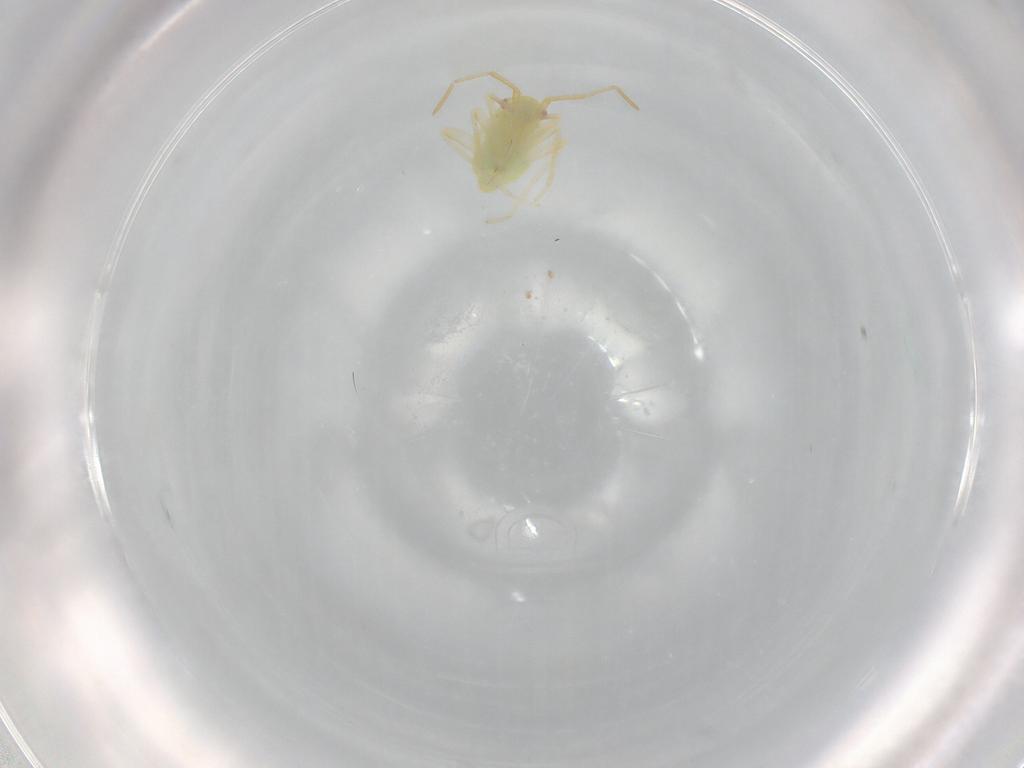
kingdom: Animalia
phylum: Arthropoda
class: Insecta
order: Hemiptera
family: Cicadellidae
